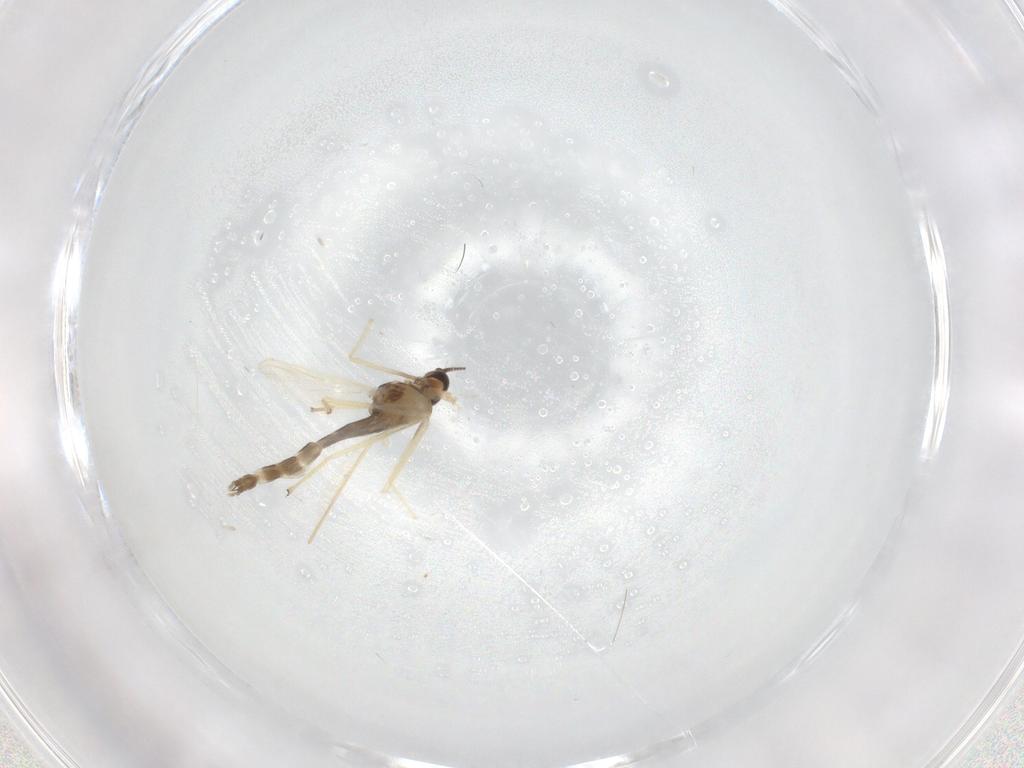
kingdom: Animalia
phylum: Arthropoda
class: Insecta
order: Diptera
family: Chironomidae
